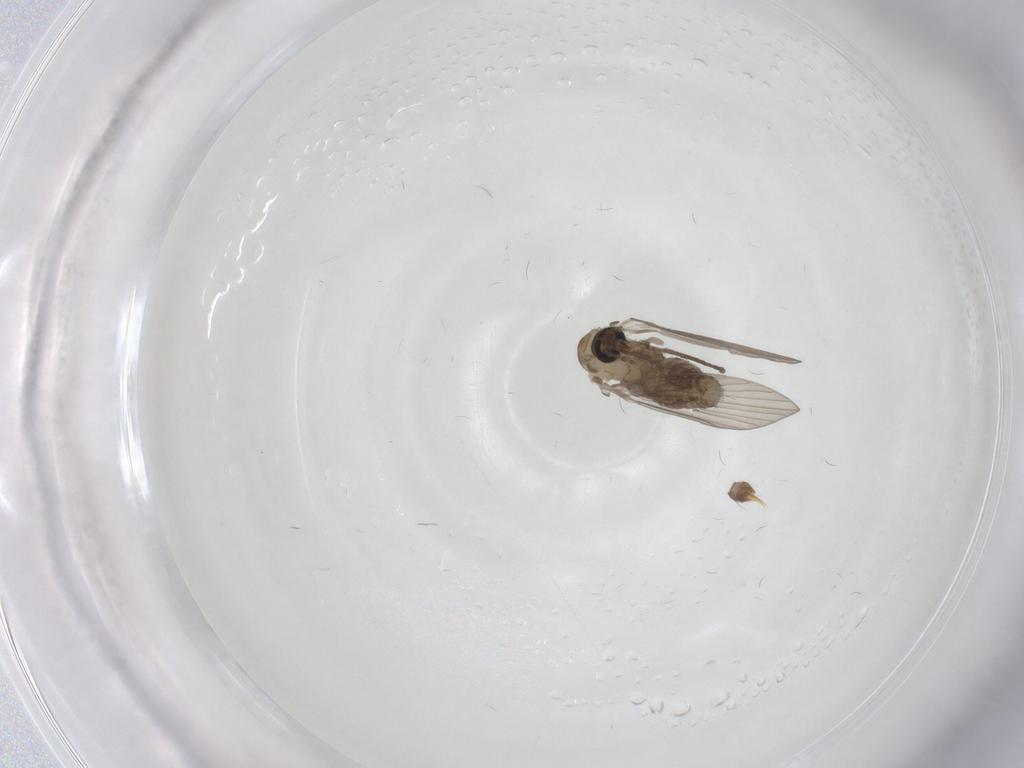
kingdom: Animalia
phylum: Arthropoda
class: Insecta
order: Diptera
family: Psychodidae
